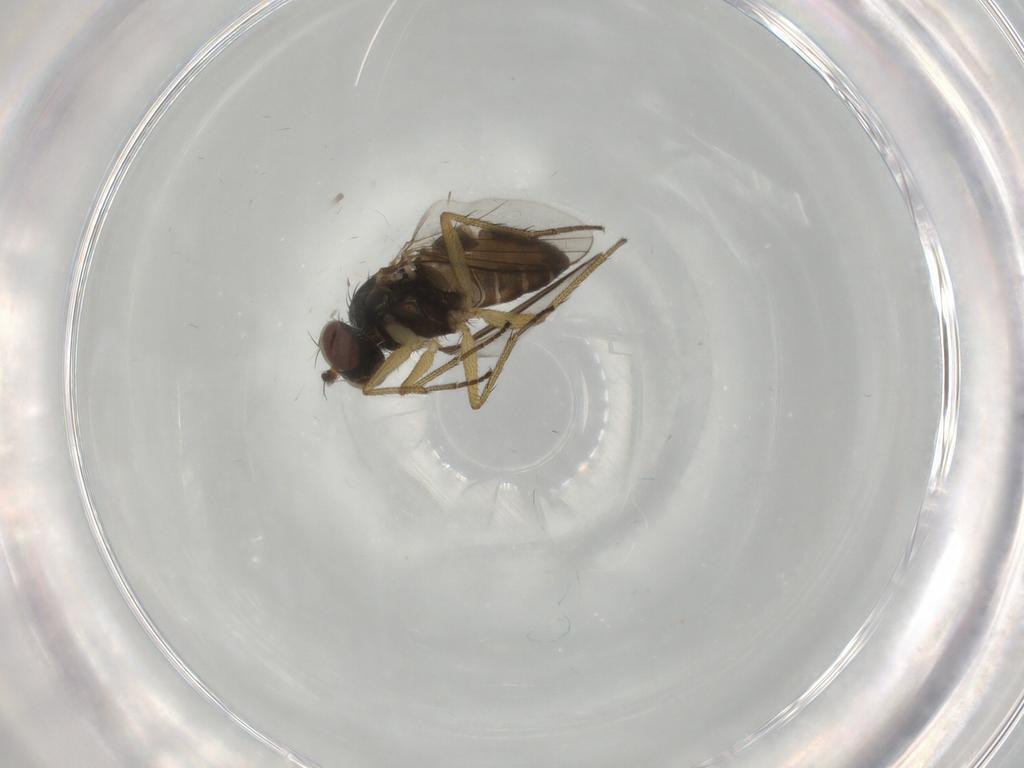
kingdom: Animalia
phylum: Arthropoda
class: Insecta
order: Diptera
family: Dolichopodidae
